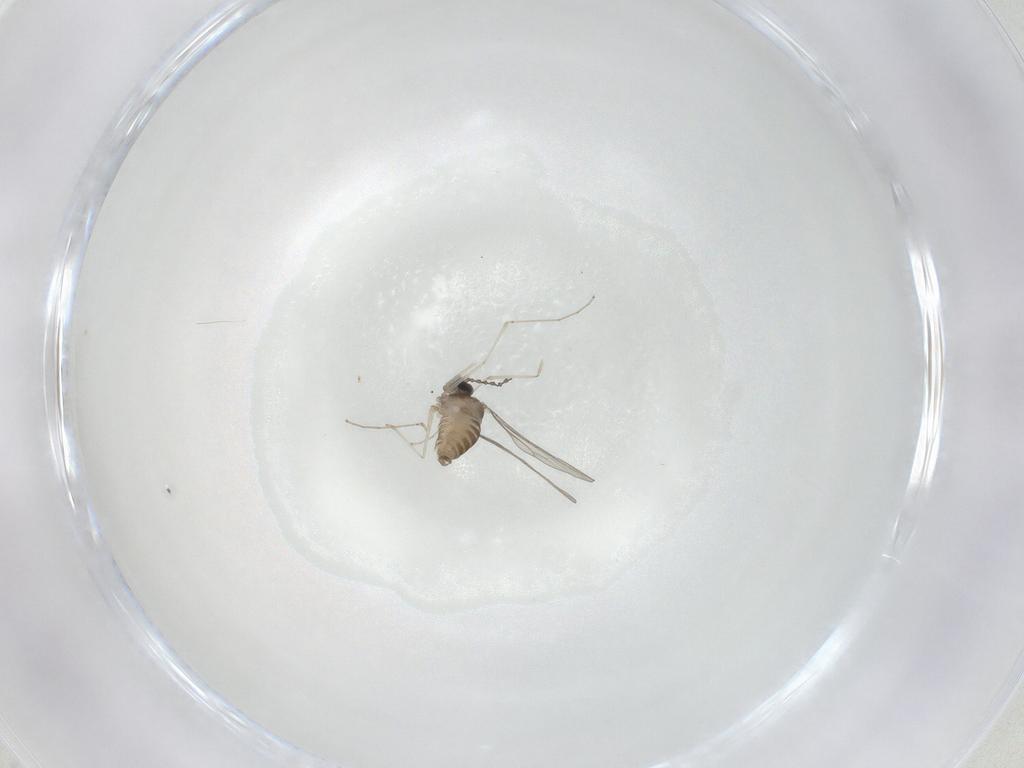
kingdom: Animalia
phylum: Arthropoda
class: Insecta
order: Diptera
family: Cecidomyiidae
